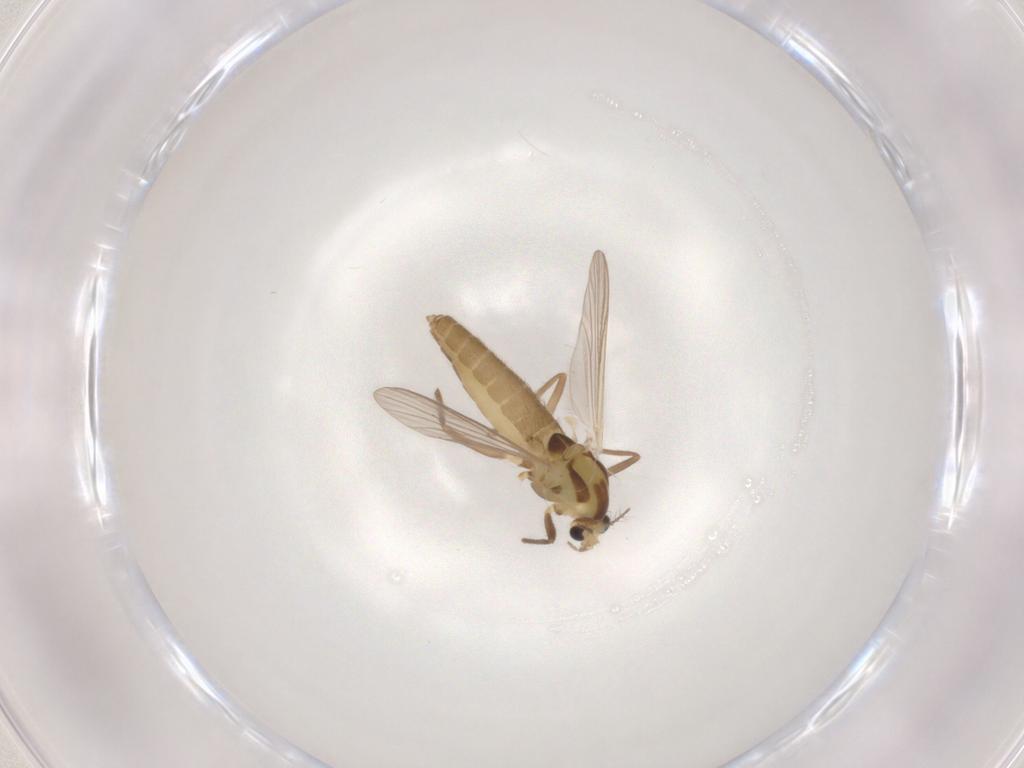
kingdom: Animalia
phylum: Arthropoda
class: Insecta
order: Diptera
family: Chironomidae
